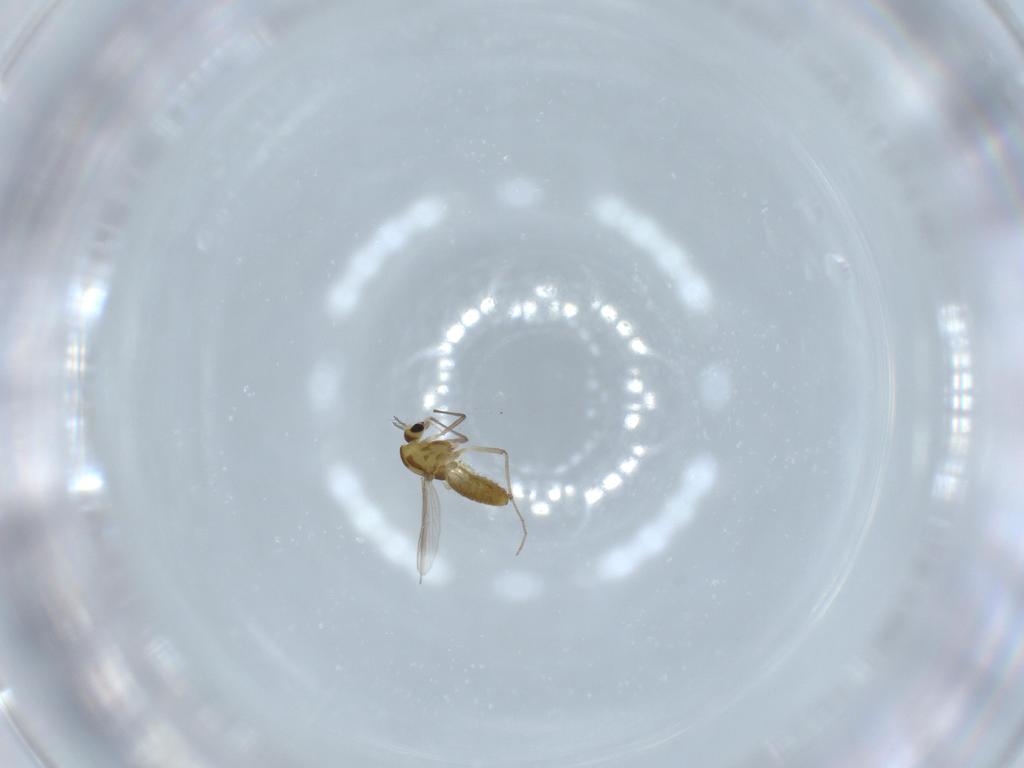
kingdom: Animalia
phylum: Arthropoda
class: Insecta
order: Diptera
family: Chironomidae
